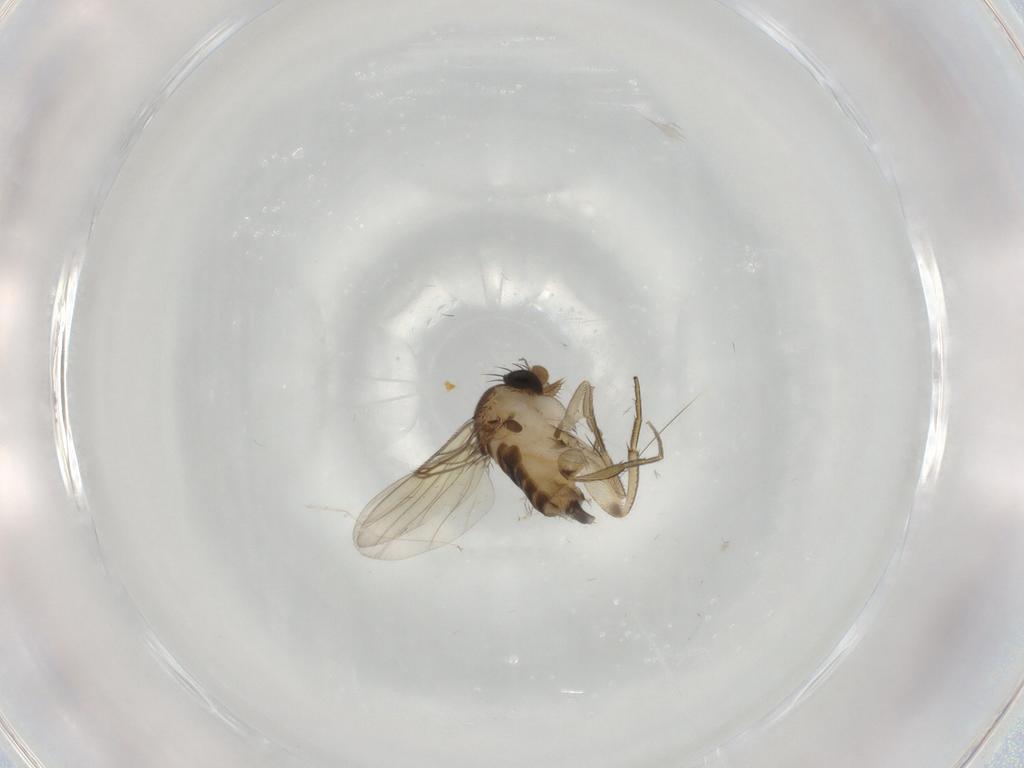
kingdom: Animalia
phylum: Arthropoda
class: Insecta
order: Diptera
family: Phoridae
